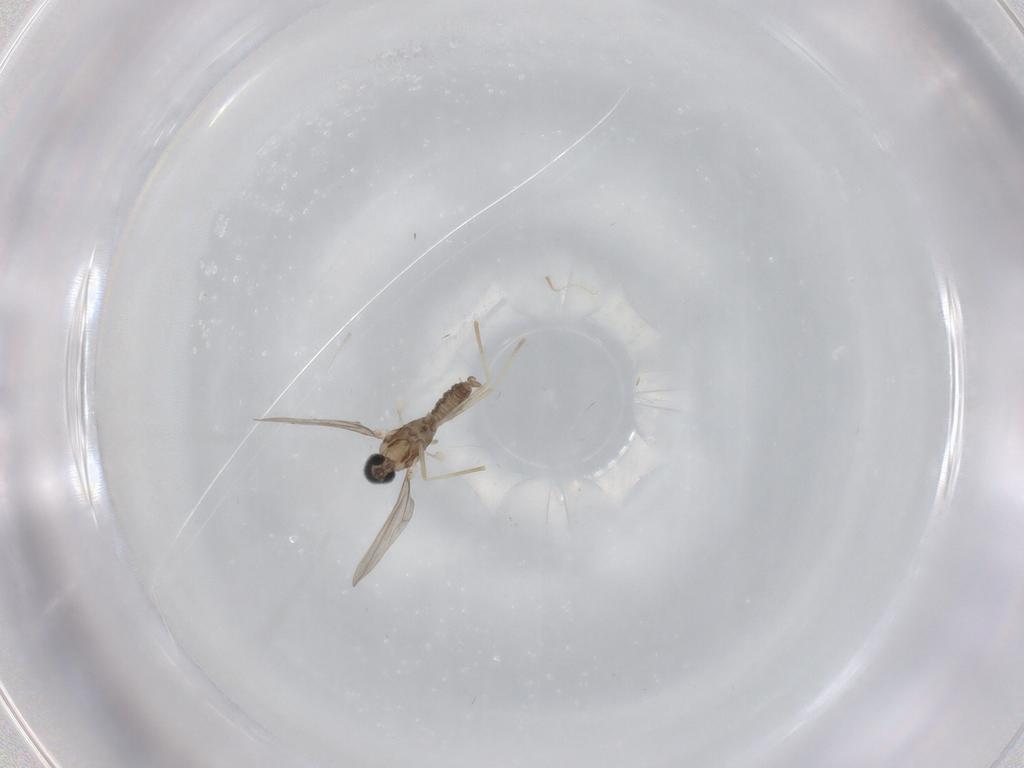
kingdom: Animalia
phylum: Arthropoda
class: Insecta
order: Diptera
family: Cecidomyiidae
